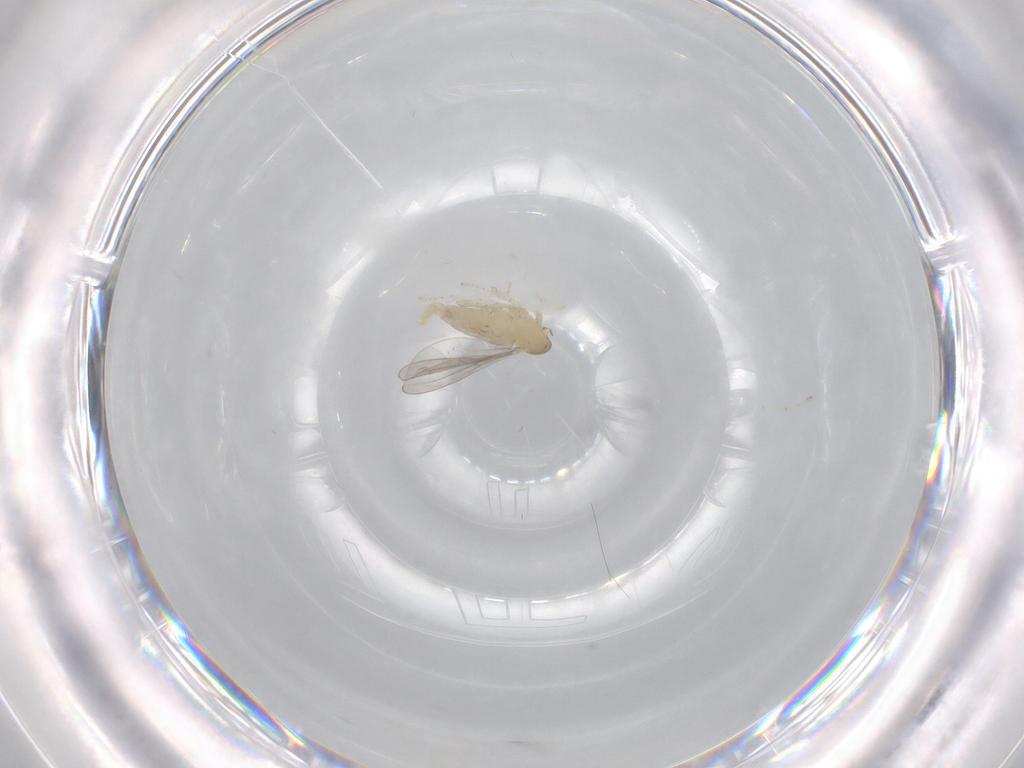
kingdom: Animalia
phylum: Arthropoda
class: Insecta
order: Diptera
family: Cecidomyiidae
